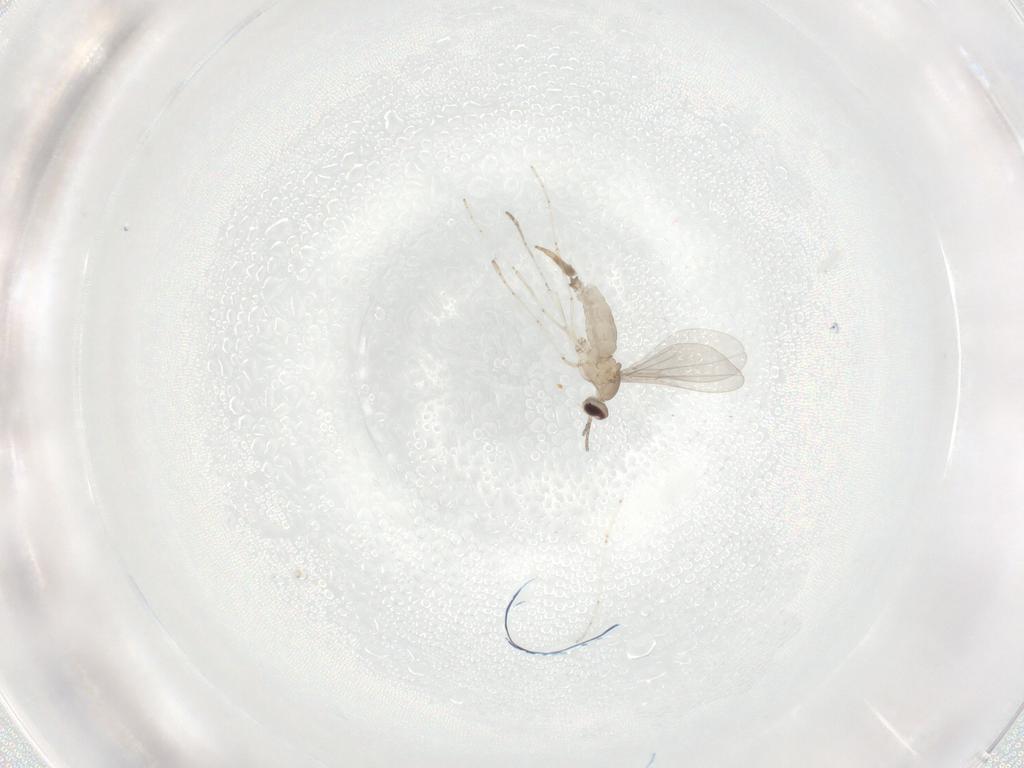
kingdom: Animalia
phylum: Arthropoda
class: Insecta
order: Diptera
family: Cecidomyiidae
